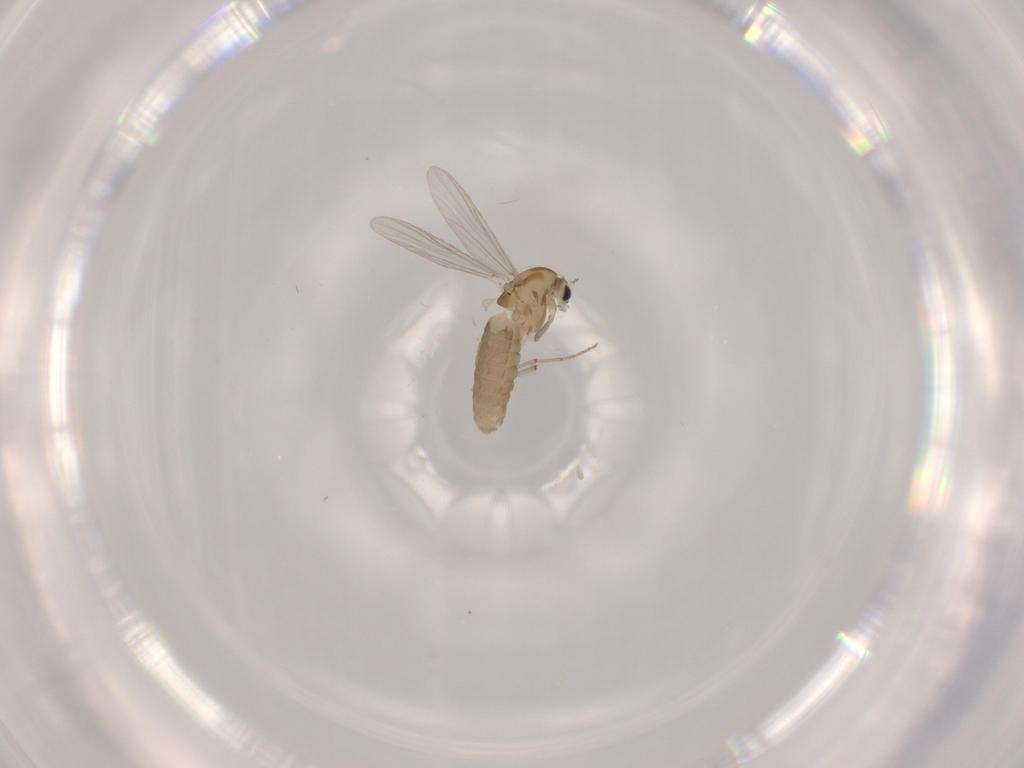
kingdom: Animalia
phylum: Arthropoda
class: Insecta
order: Diptera
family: Chironomidae
